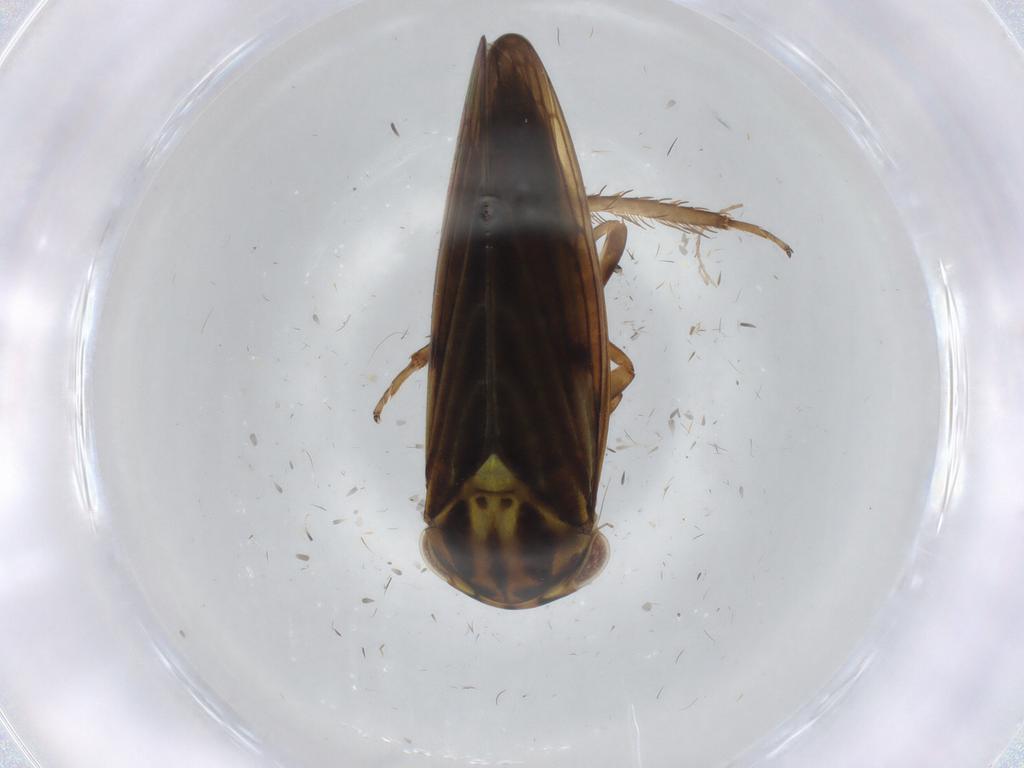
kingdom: Animalia
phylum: Arthropoda
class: Insecta
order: Hemiptera
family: Cicadellidae
